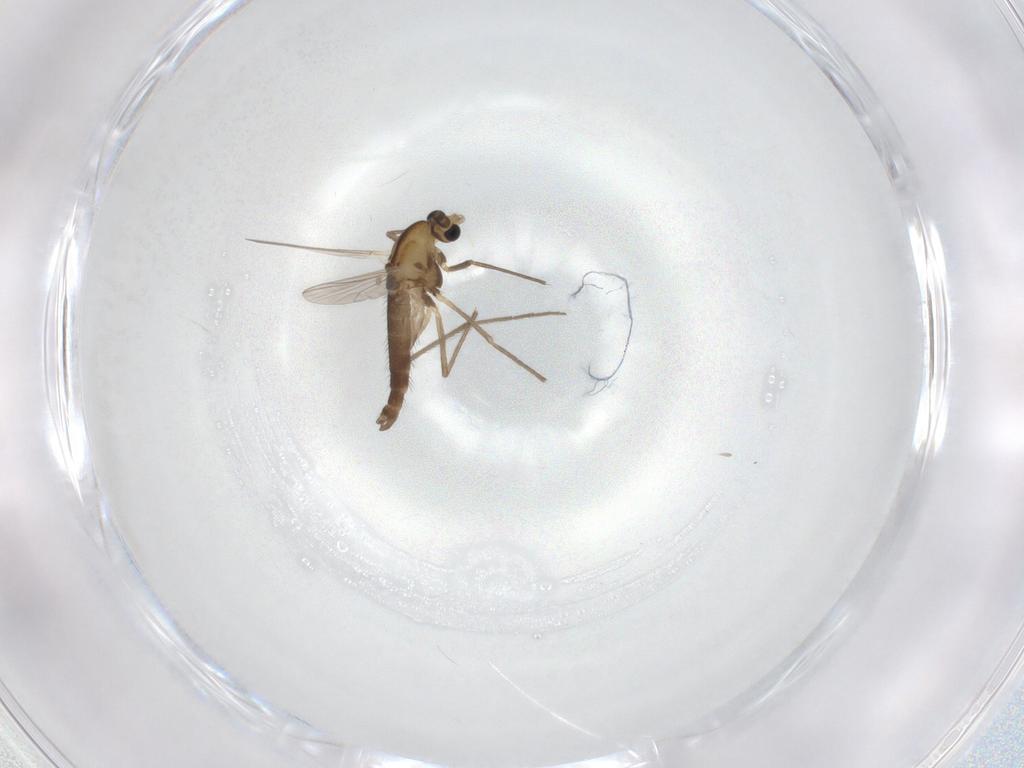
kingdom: Animalia
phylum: Arthropoda
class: Insecta
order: Diptera
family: Chironomidae
